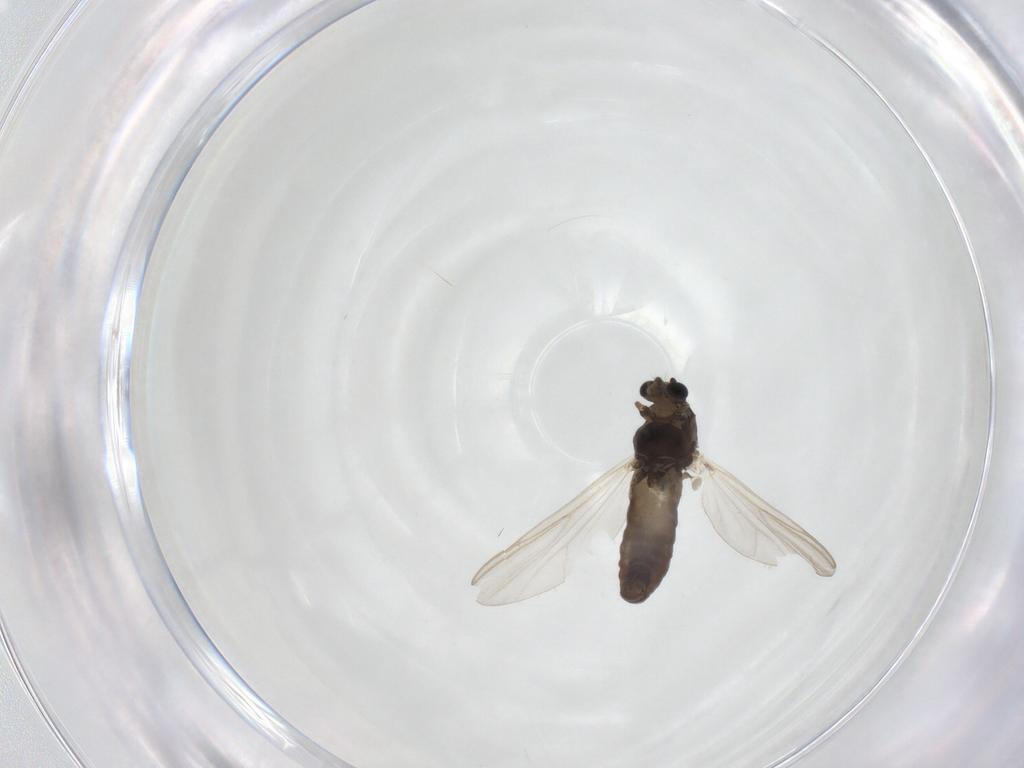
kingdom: Animalia
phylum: Arthropoda
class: Insecta
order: Diptera
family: Chironomidae
